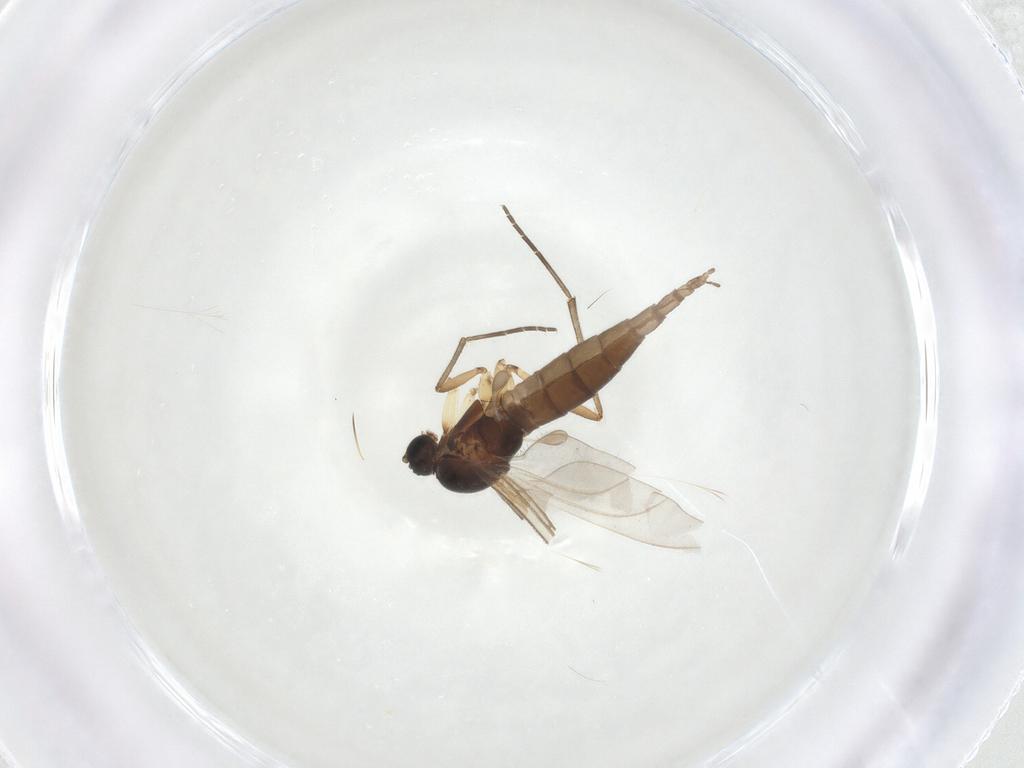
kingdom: Animalia
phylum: Arthropoda
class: Insecta
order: Diptera
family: Sciaridae
